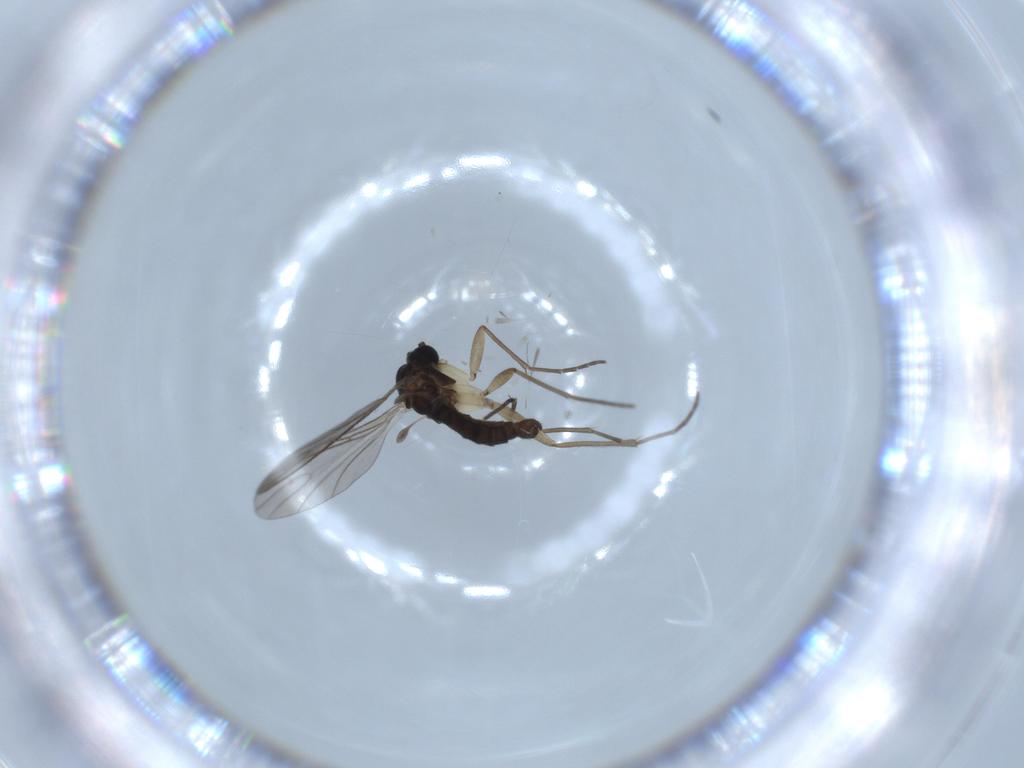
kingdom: Animalia
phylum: Arthropoda
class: Insecta
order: Diptera
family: Sciaridae
